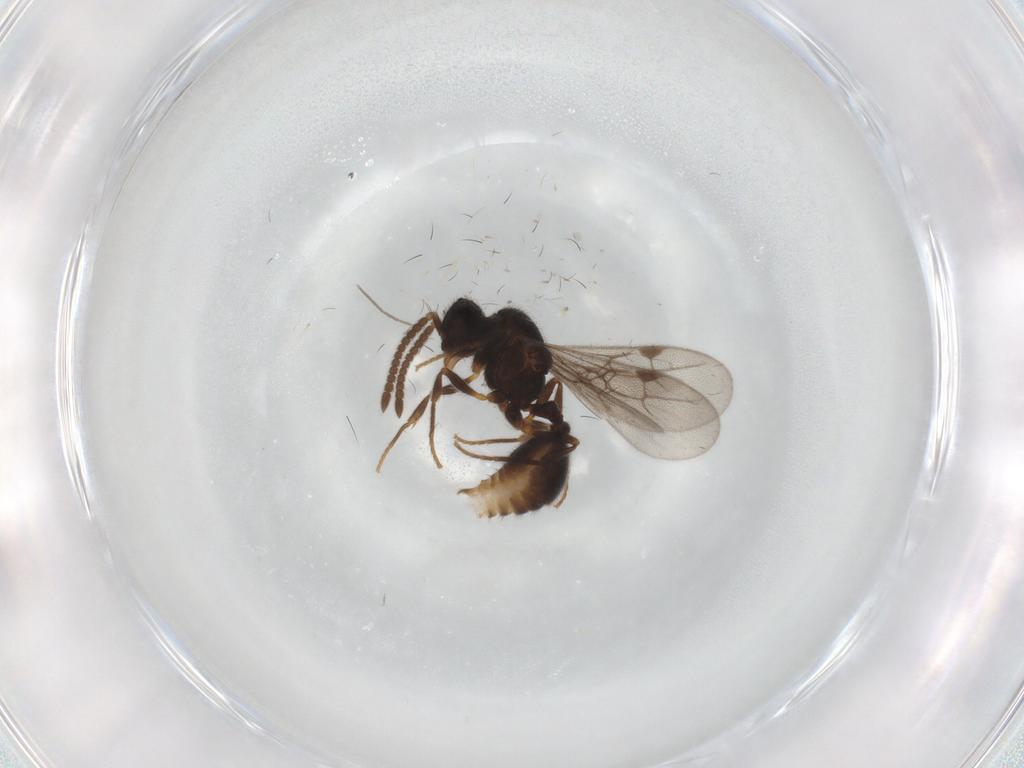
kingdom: Animalia
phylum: Arthropoda
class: Insecta
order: Hymenoptera
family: Formicidae
